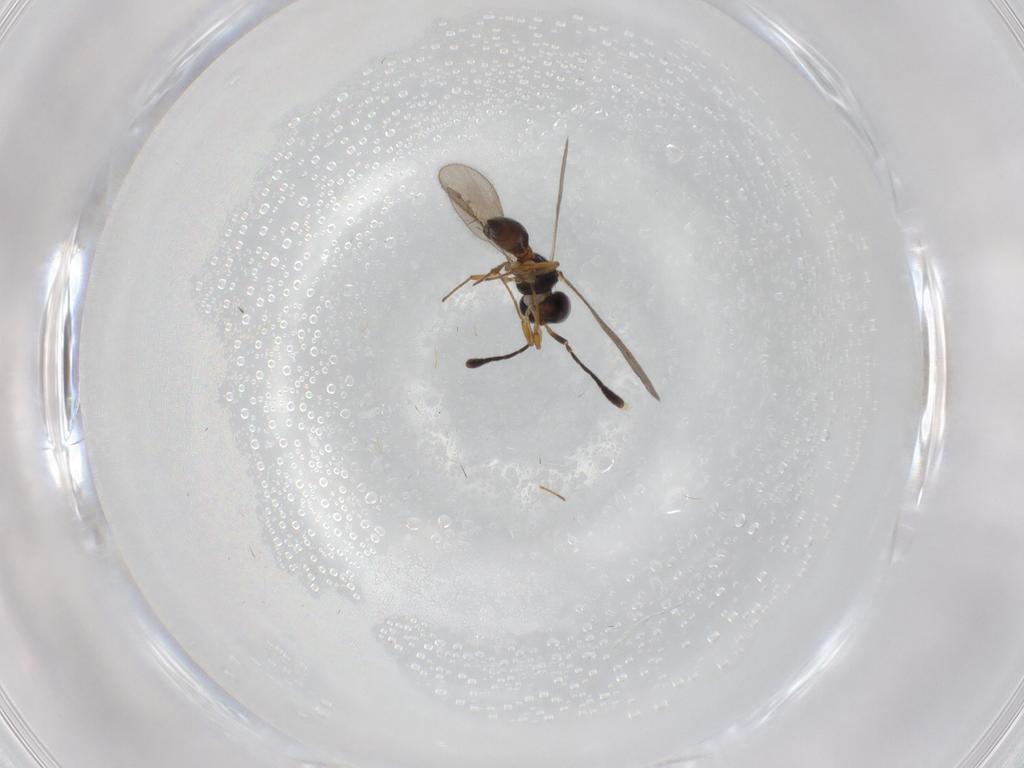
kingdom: Animalia
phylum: Arthropoda
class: Insecta
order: Hymenoptera
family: Scelionidae
